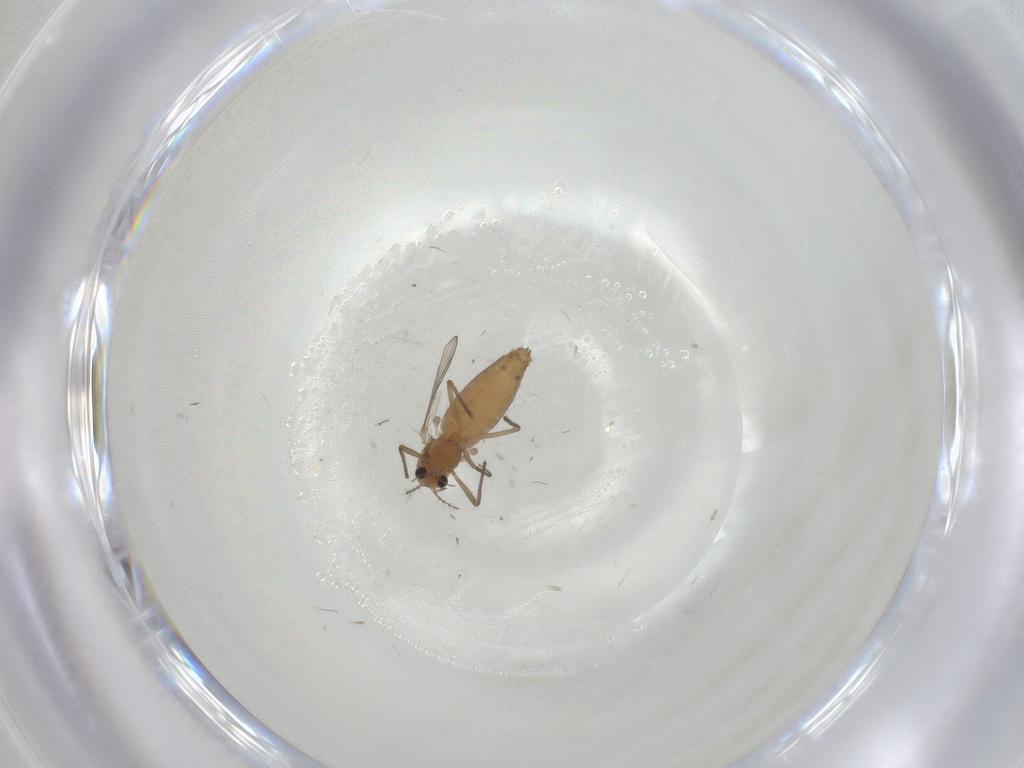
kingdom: Animalia
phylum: Arthropoda
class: Insecta
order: Diptera
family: Chironomidae
